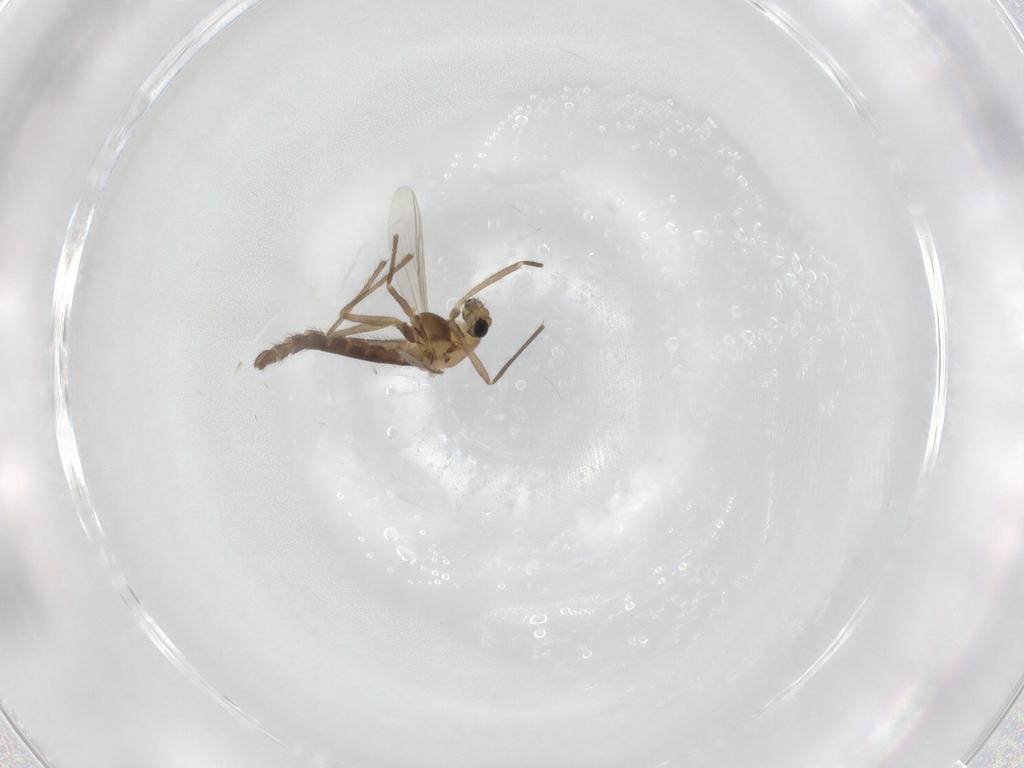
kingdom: Animalia
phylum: Arthropoda
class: Insecta
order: Diptera
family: Chironomidae
